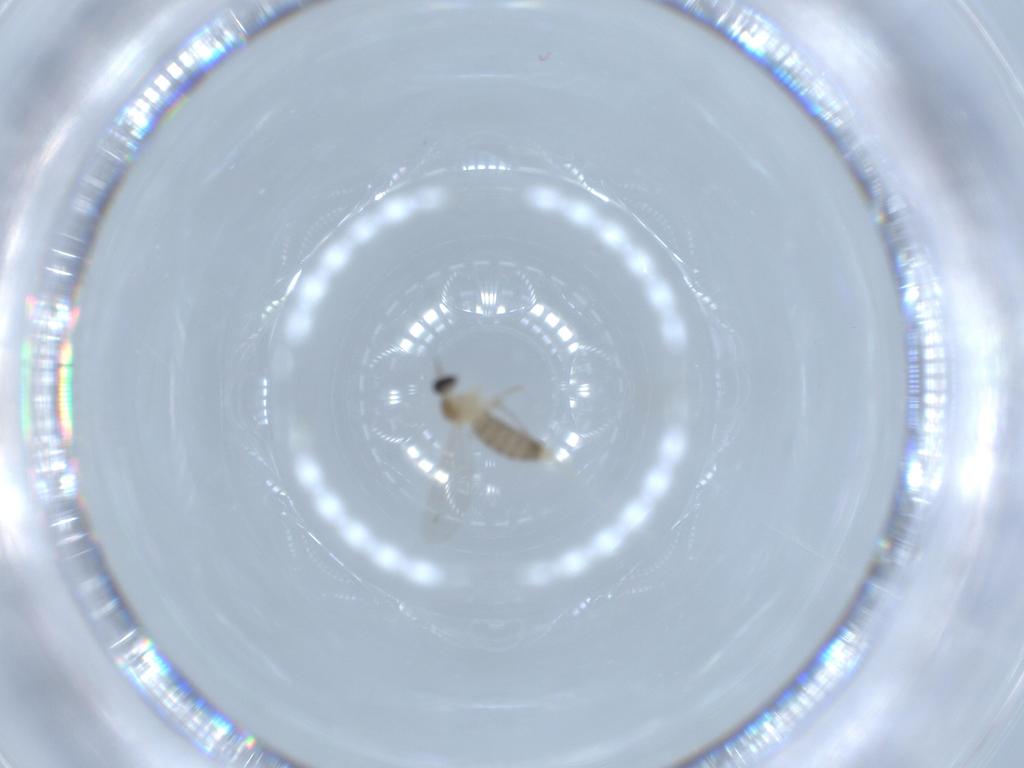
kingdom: Animalia
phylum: Arthropoda
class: Insecta
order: Diptera
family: Cecidomyiidae
